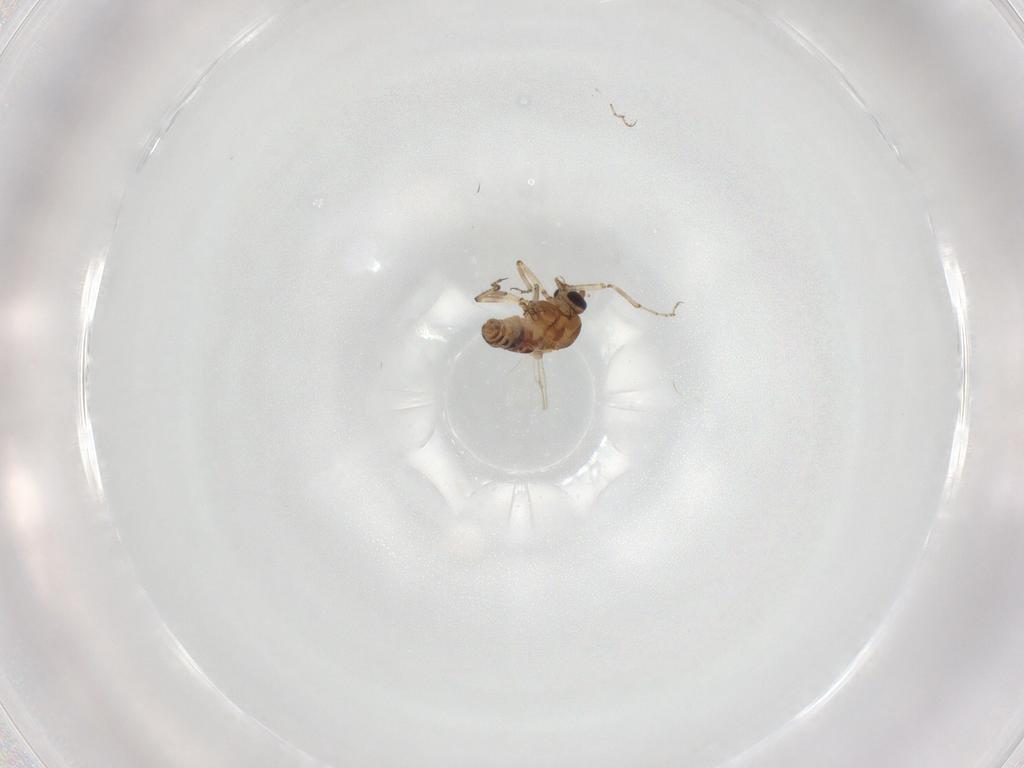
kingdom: Animalia
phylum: Arthropoda
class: Insecta
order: Diptera
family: Ceratopogonidae
